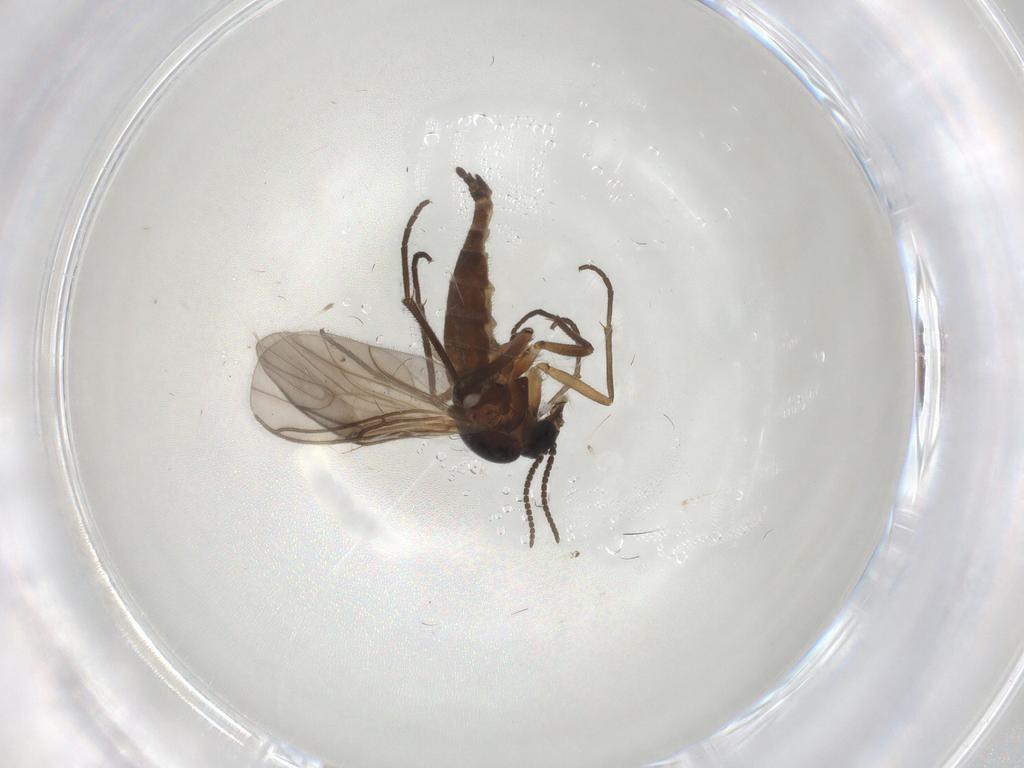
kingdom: Animalia
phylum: Arthropoda
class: Insecta
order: Diptera
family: Sciaridae
